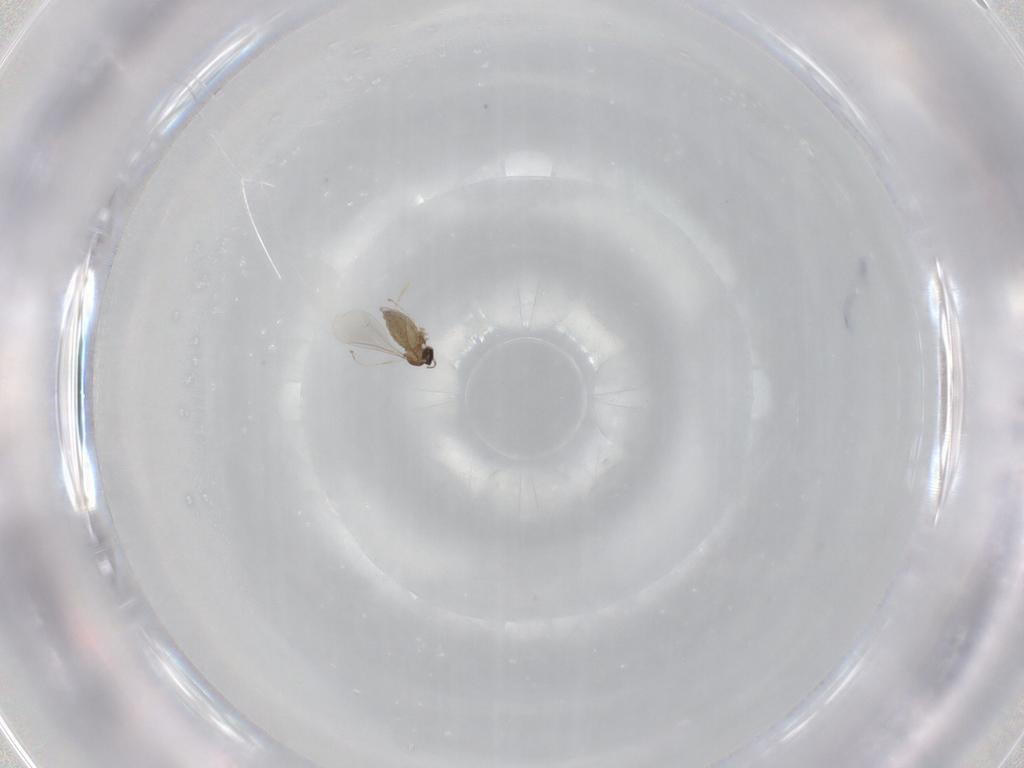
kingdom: Animalia
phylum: Arthropoda
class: Insecta
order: Diptera
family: Cecidomyiidae
